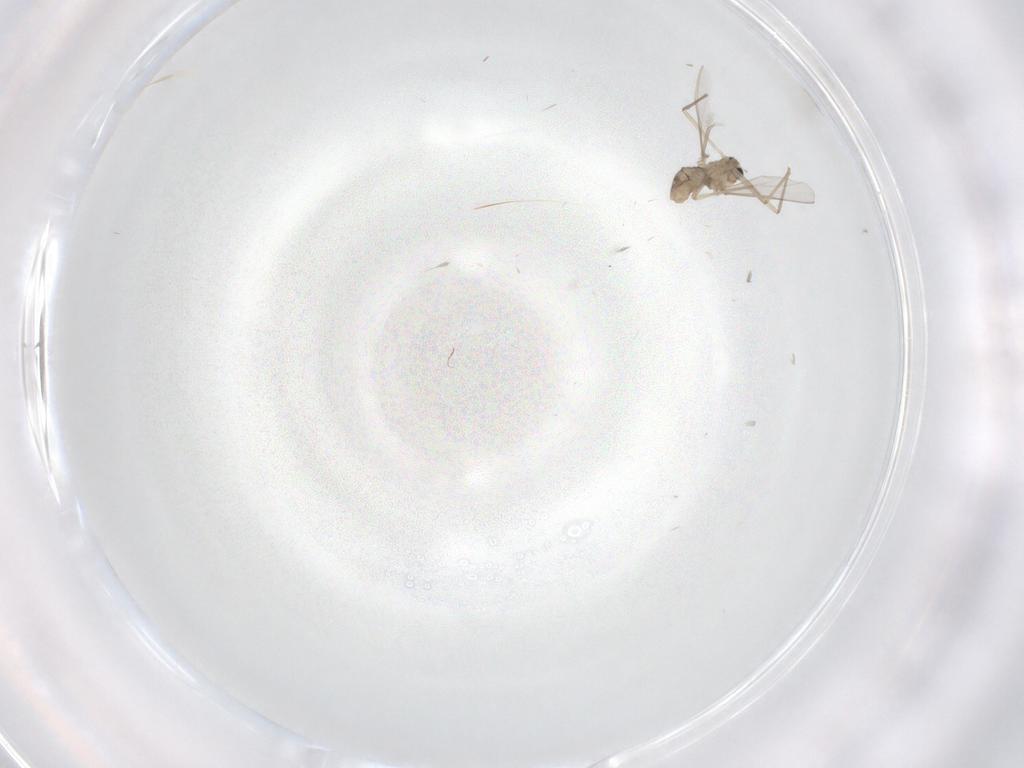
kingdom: Animalia
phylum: Arthropoda
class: Insecta
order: Diptera
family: Chironomidae
